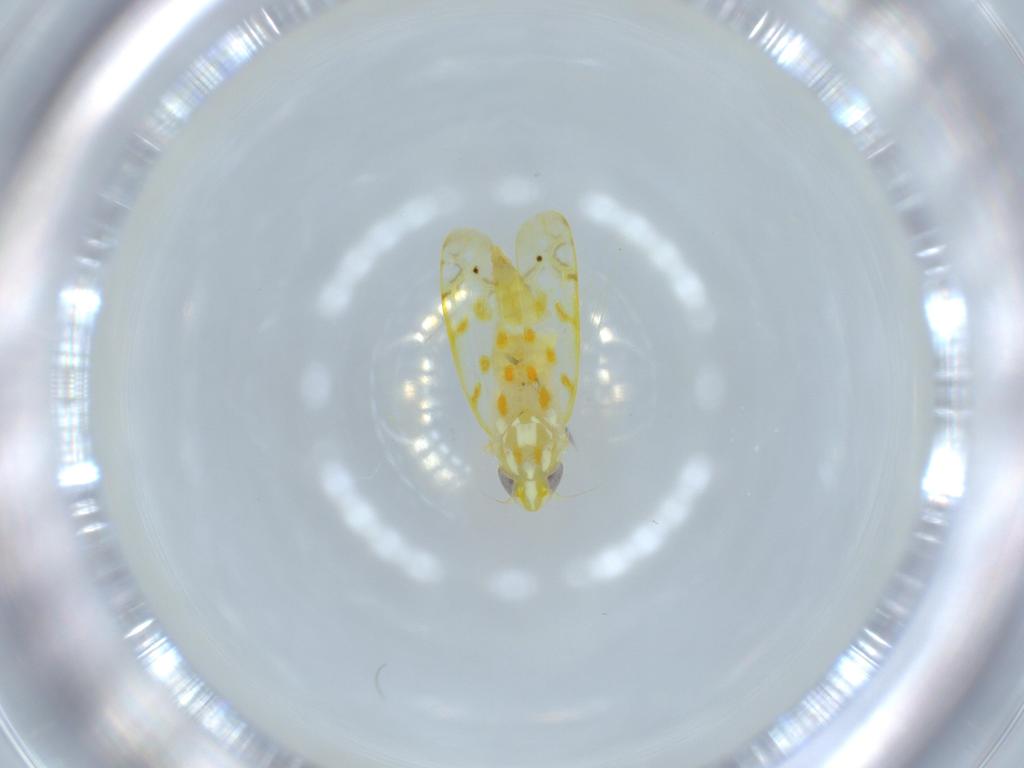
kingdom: Animalia
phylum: Arthropoda
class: Insecta
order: Hemiptera
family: Cicadellidae
